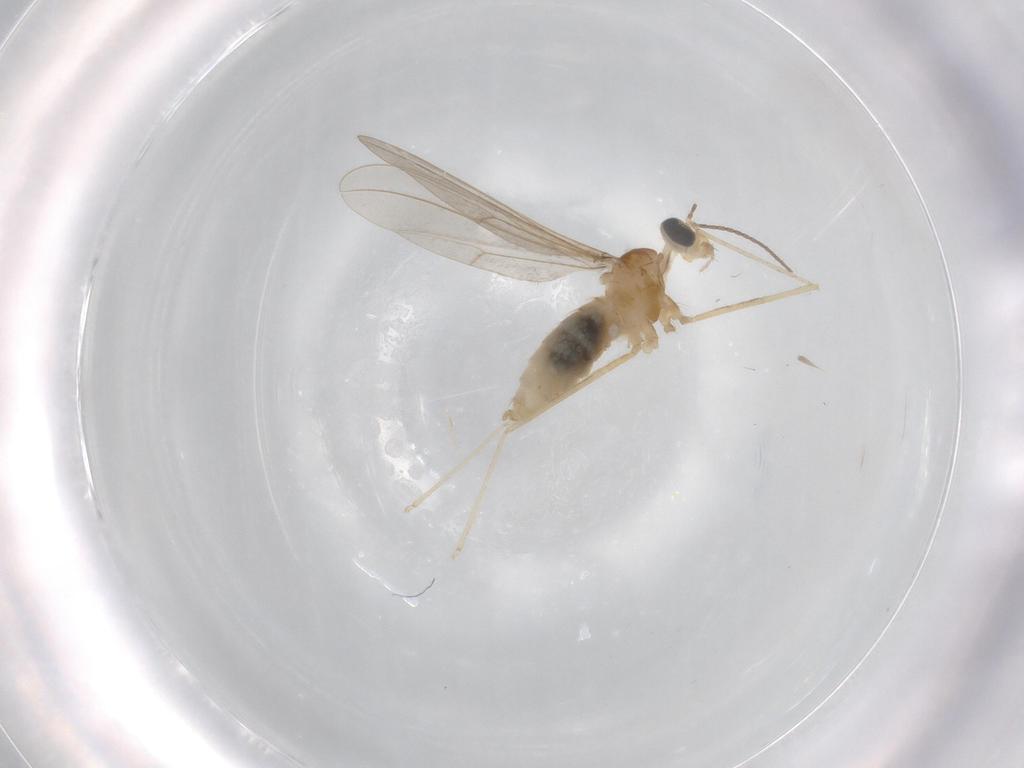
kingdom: Animalia
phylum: Arthropoda
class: Insecta
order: Diptera
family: Cecidomyiidae
